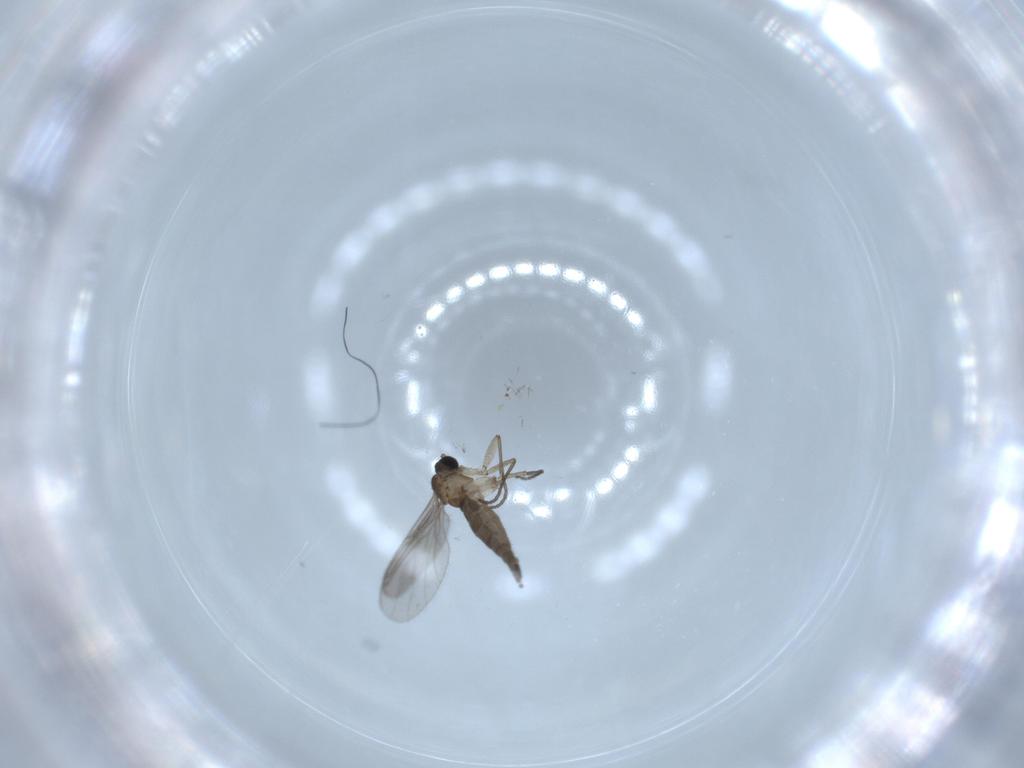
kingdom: Animalia
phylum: Arthropoda
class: Insecta
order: Diptera
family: Sciaridae
